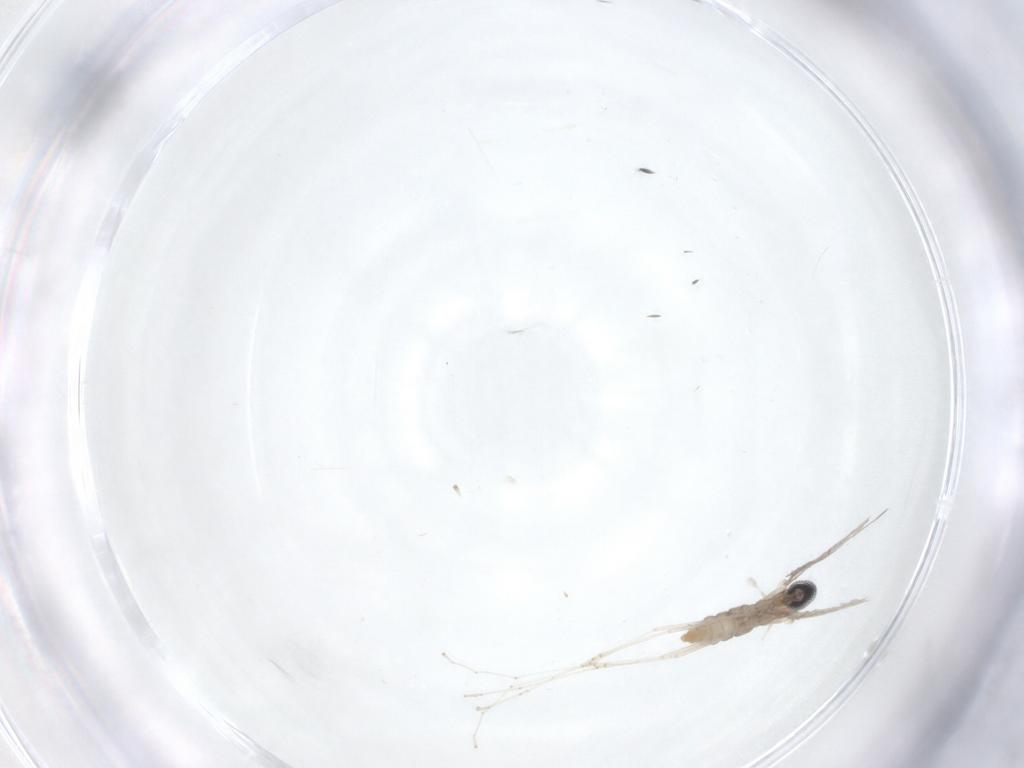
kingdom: Animalia
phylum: Arthropoda
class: Insecta
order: Diptera
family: Cecidomyiidae
